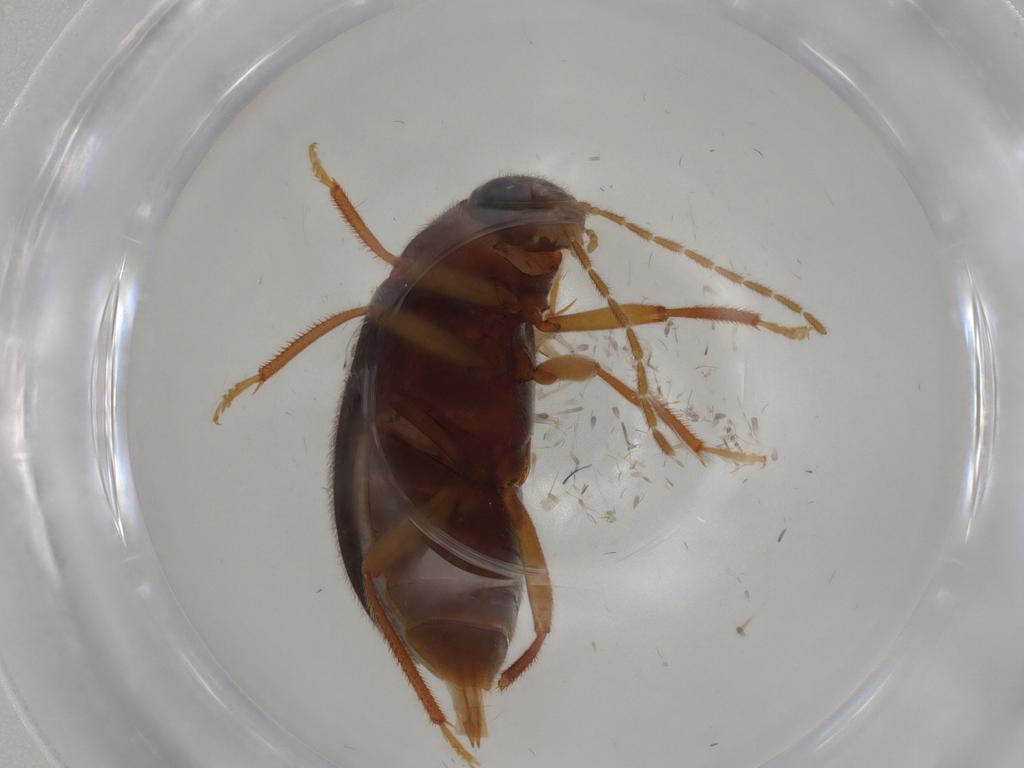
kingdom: Animalia
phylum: Arthropoda
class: Insecta
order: Coleoptera
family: Ptilodactylidae
